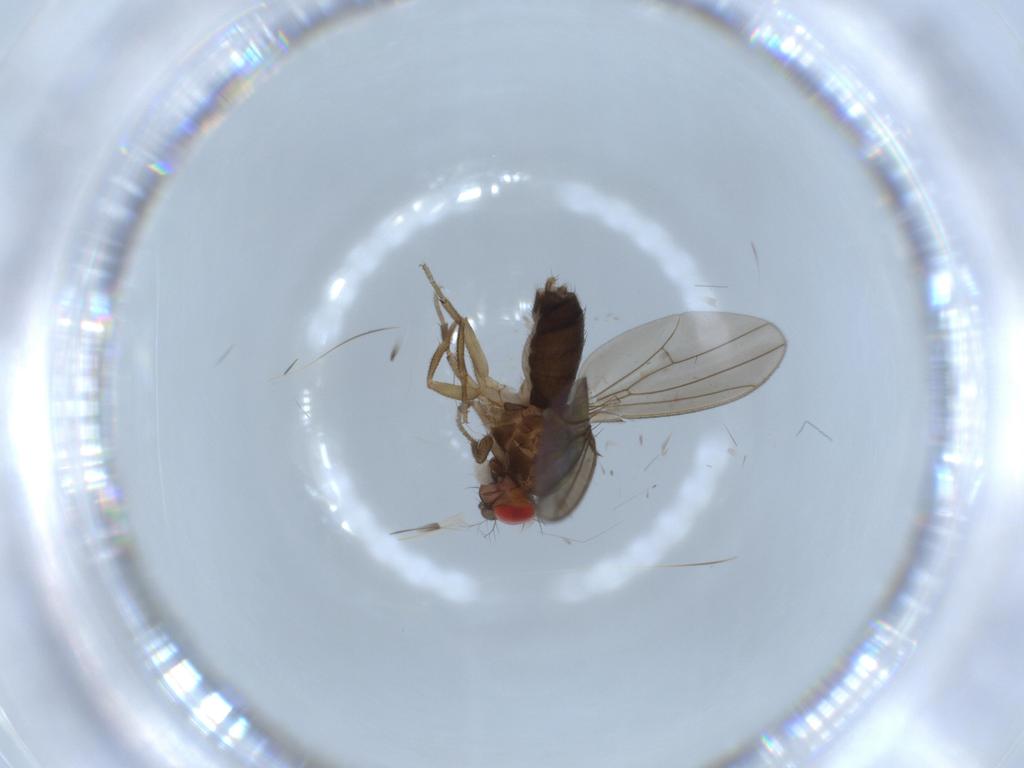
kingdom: Animalia
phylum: Arthropoda
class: Insecta
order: Diptera
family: Drosophilidae
